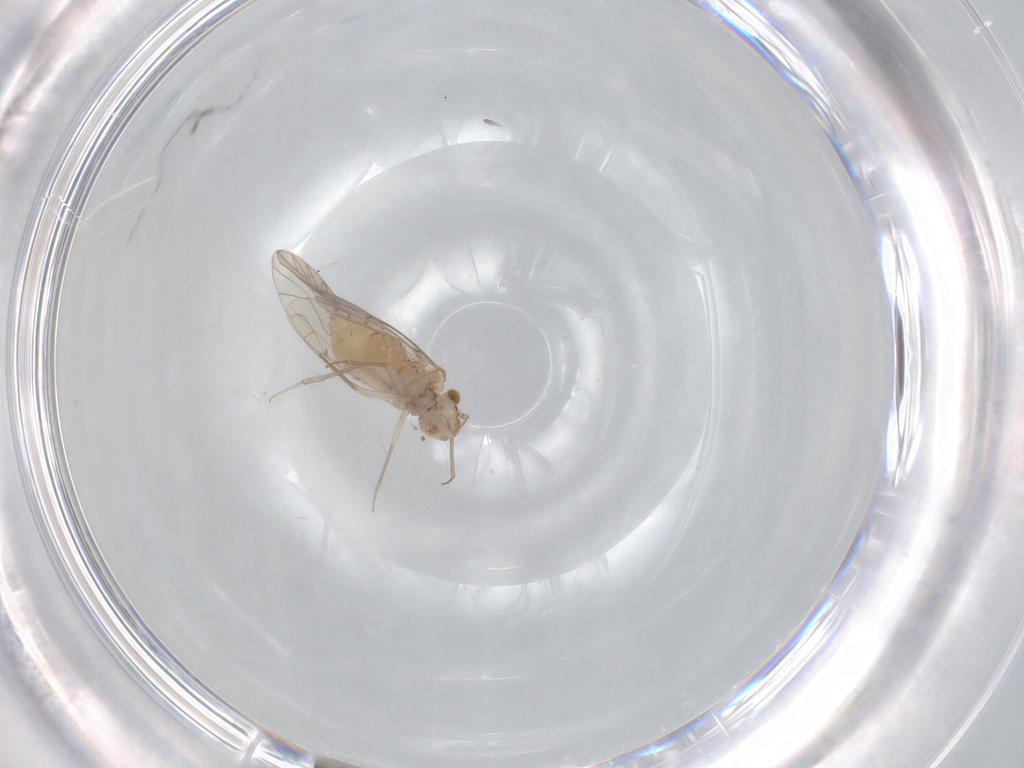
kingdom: Animalia
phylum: Arthropoda
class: Insecta
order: Psocodea
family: Lachesillidae
